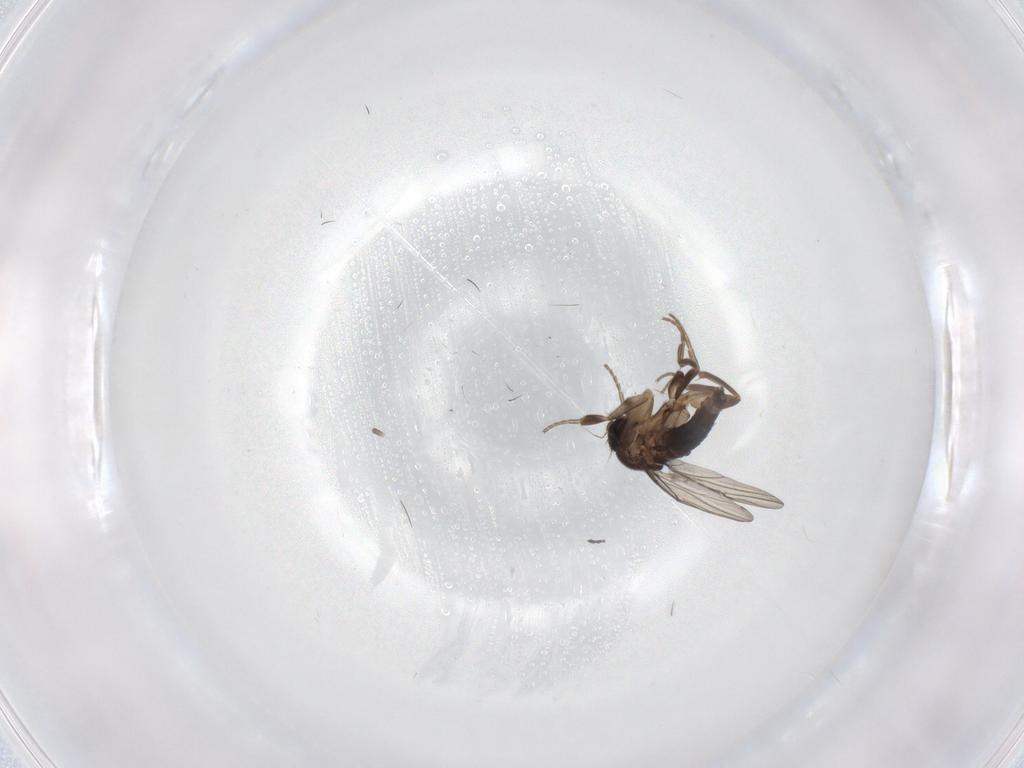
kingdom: Animalia
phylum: Arthropoda
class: Insecta
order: Diptera
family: Phoridae
